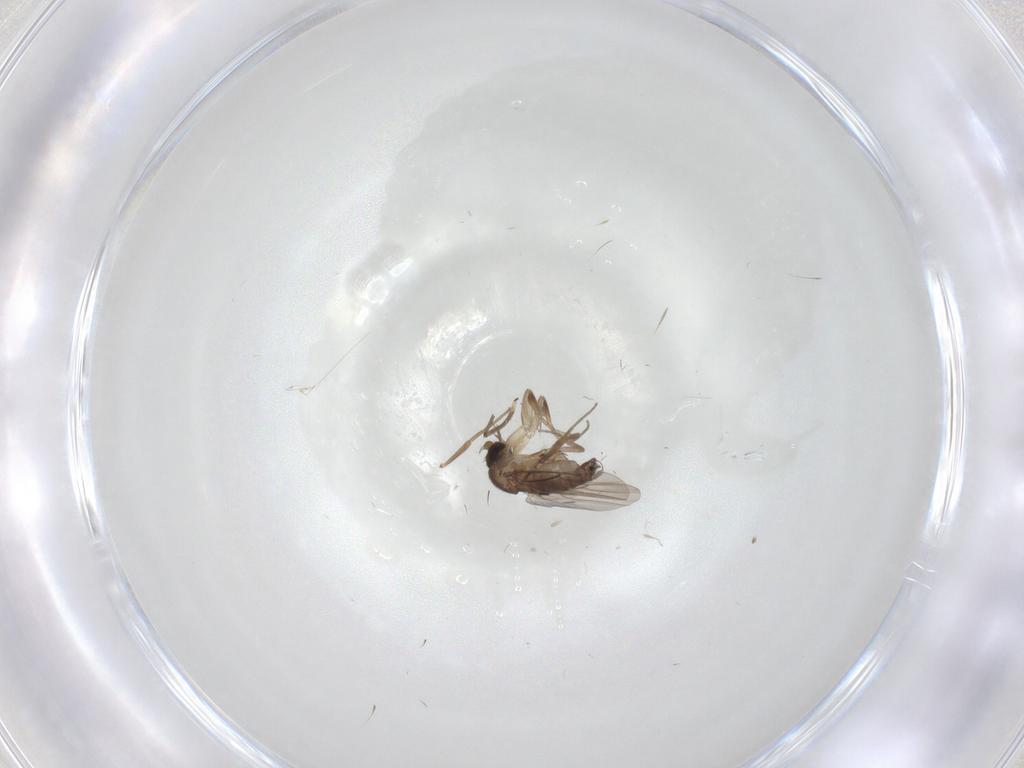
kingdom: Animalia
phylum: Arthropoda
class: Insecta
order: Diptera
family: Phoridae
